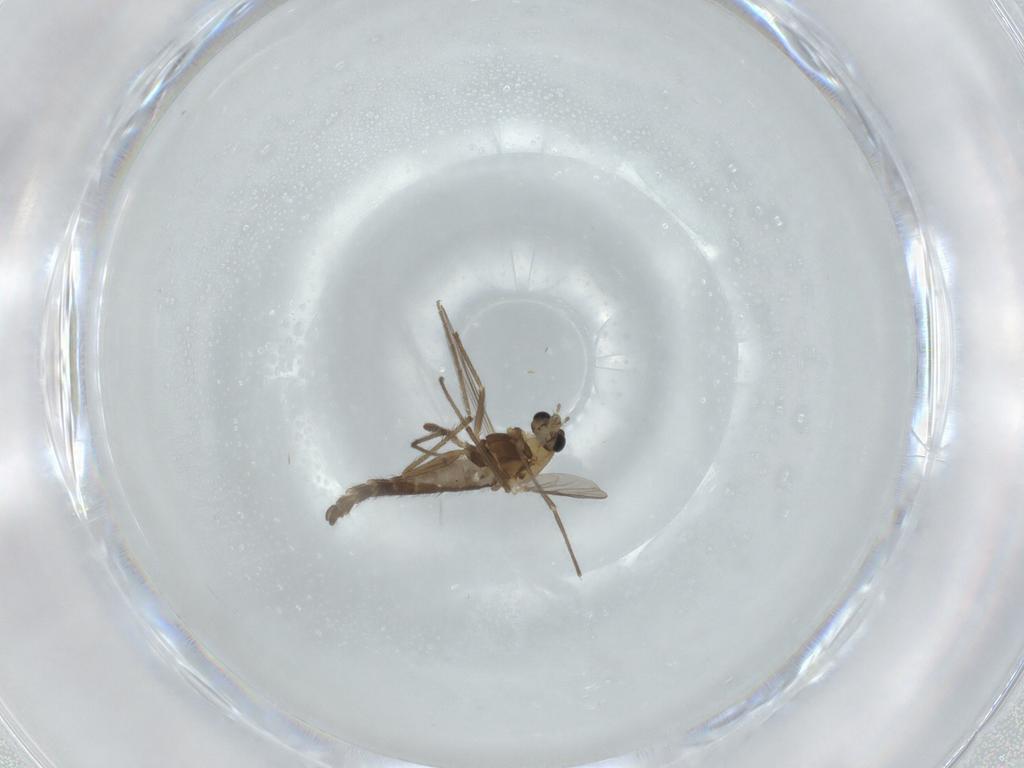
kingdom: Animalia
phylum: Arthropoda
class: Insecta
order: Diptera
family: Chironomidae
